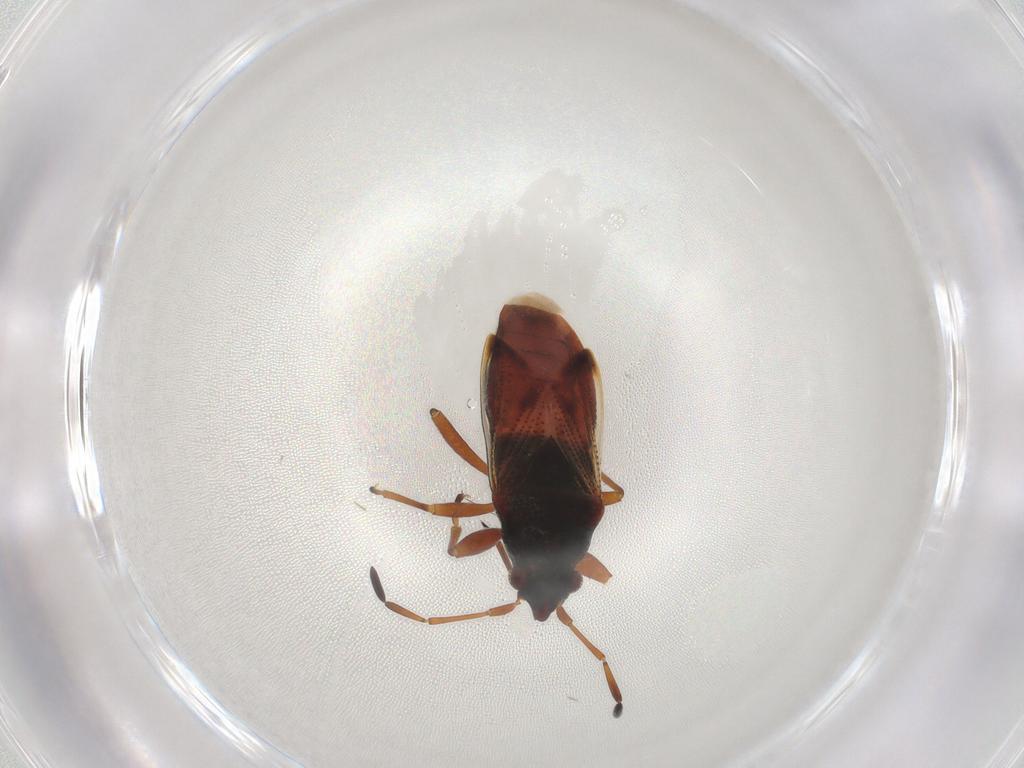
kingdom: Animalia
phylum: Arthropoda
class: Insecta
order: Hemiptera
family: Rhyparochromidae
